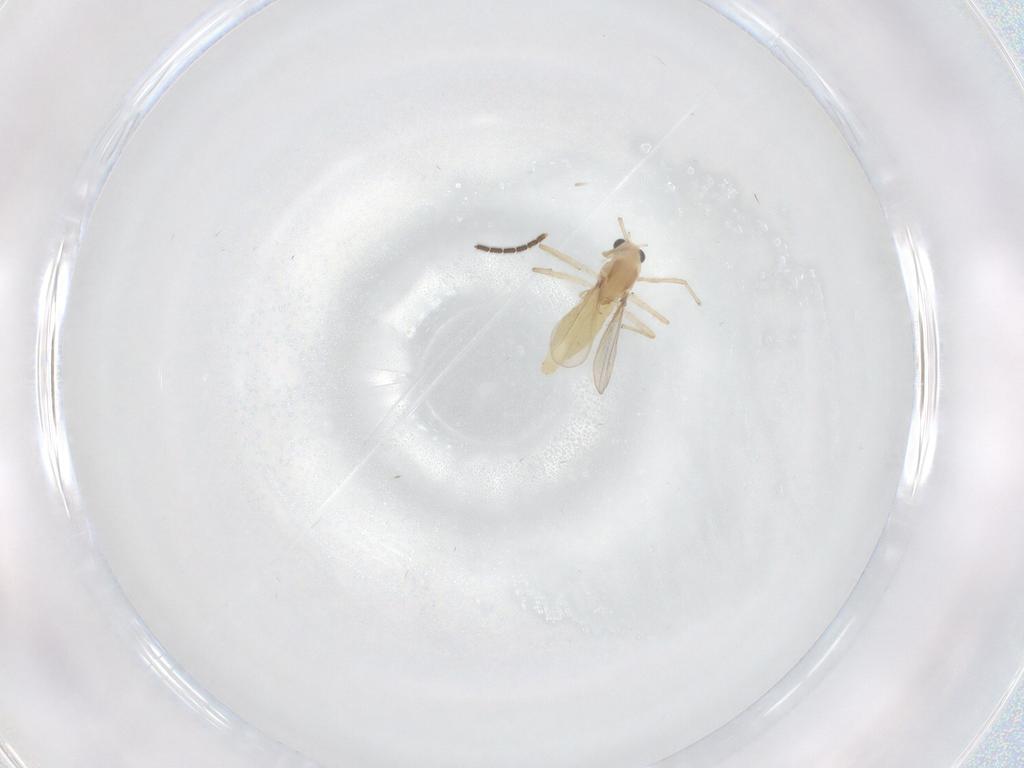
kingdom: Animalia
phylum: Arthropoda
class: Insecta
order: Diptera
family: Chironomidae
